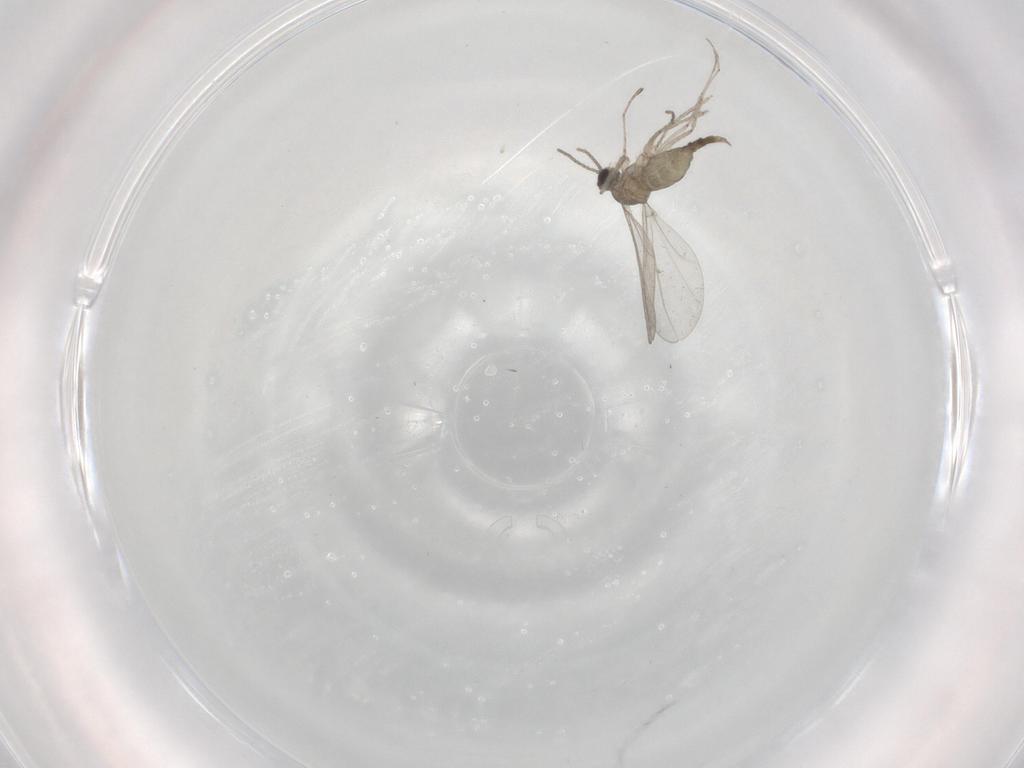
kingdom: Animalia
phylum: Arthropoda
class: Insecta
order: Diptera
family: Cecidomyiidae
